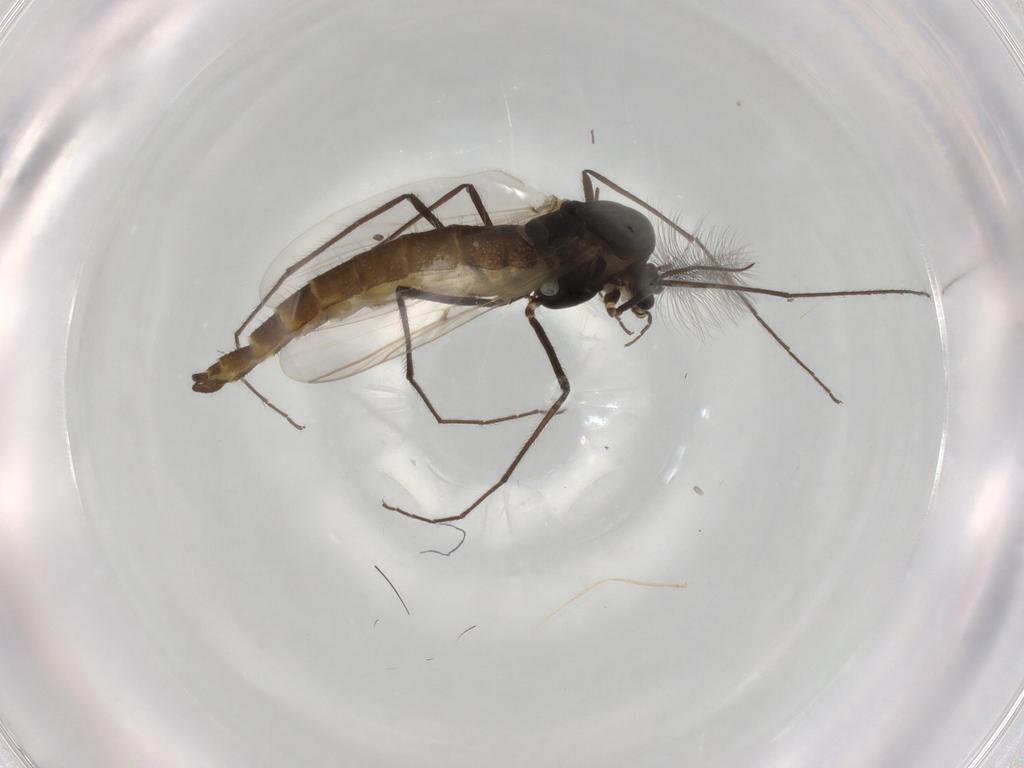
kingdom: Animalia
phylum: Arthropoda
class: Insecta
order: Diptera
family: Chironomidae
